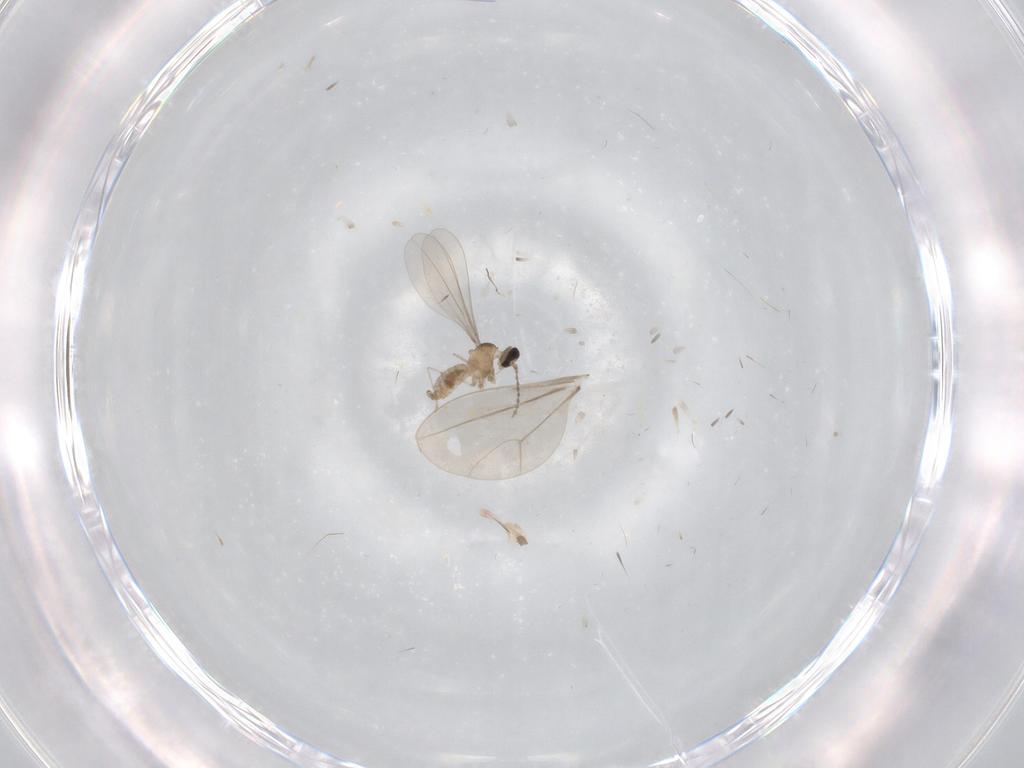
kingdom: Animalia
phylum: Arthropoda
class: Insecta
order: Diptera
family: Cecidomyiidae
